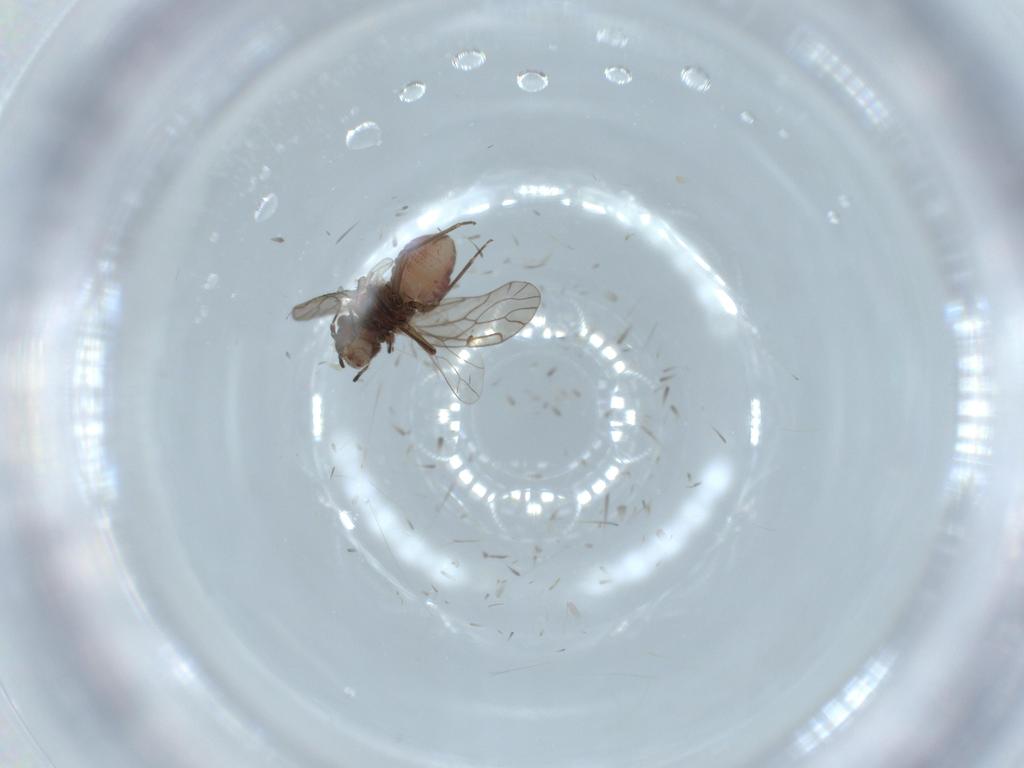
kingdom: Animalia
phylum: Arthropoda
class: Insecta
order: Psocodea
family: Ectopsocidae
